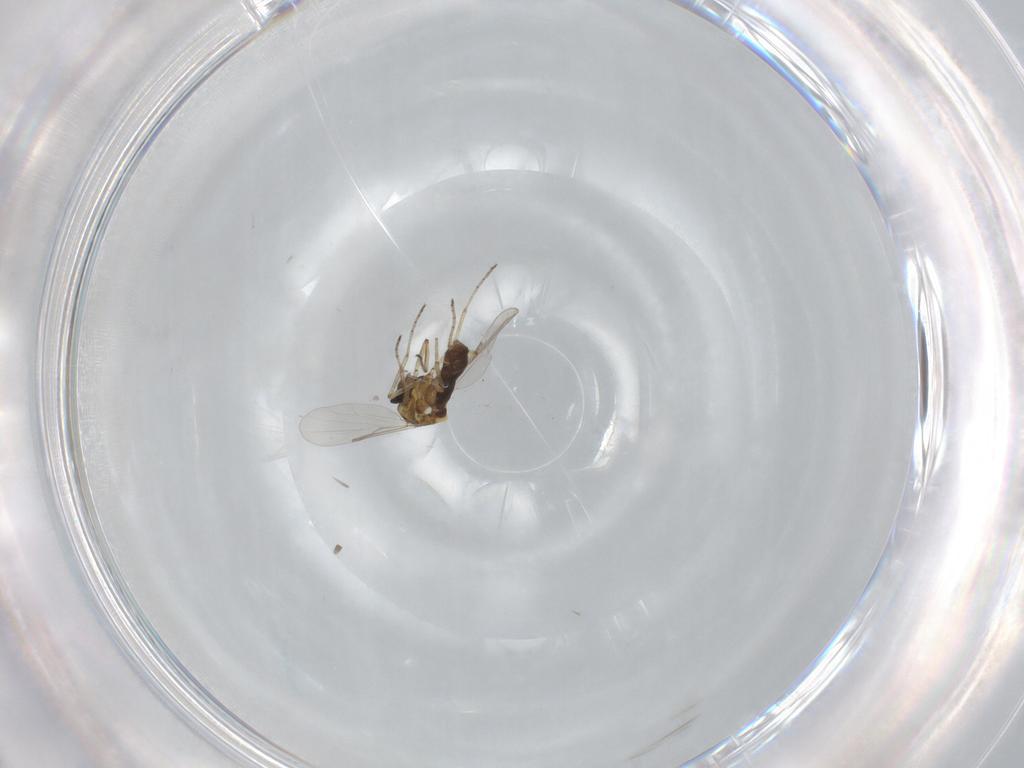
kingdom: Animalia
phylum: Arthropoda
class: Insecta
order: Diptera
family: Ceratopogonidae
